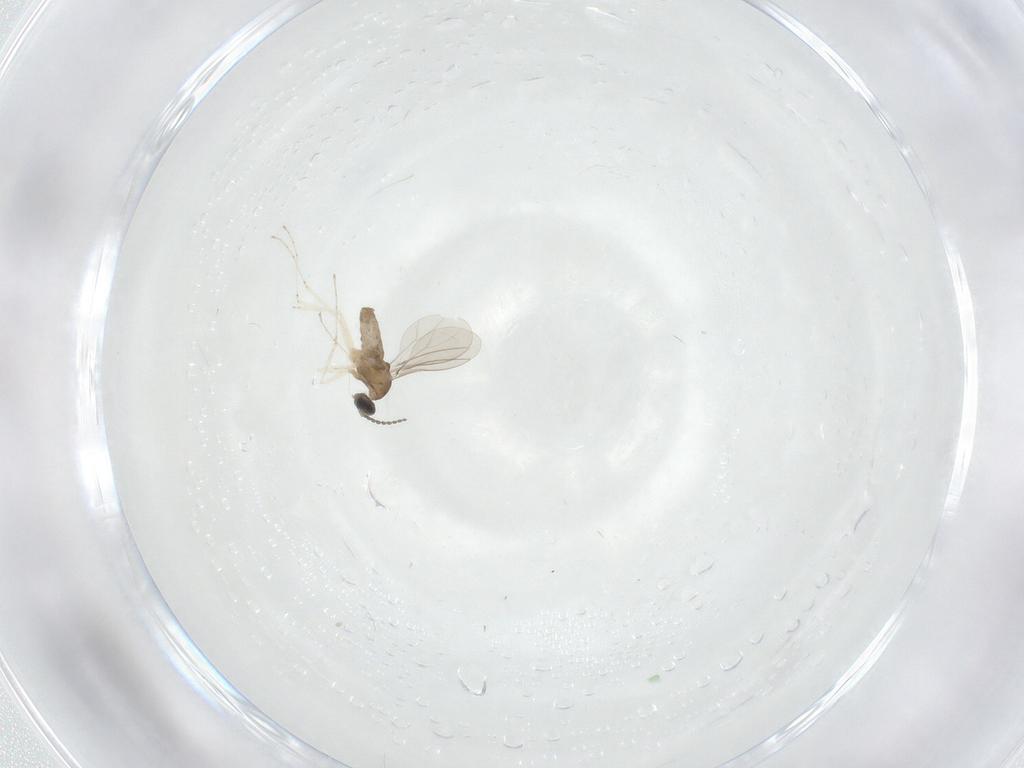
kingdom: Animalia
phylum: Arthropoda
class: Insecta
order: Diptera
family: Cecidomyiidae
